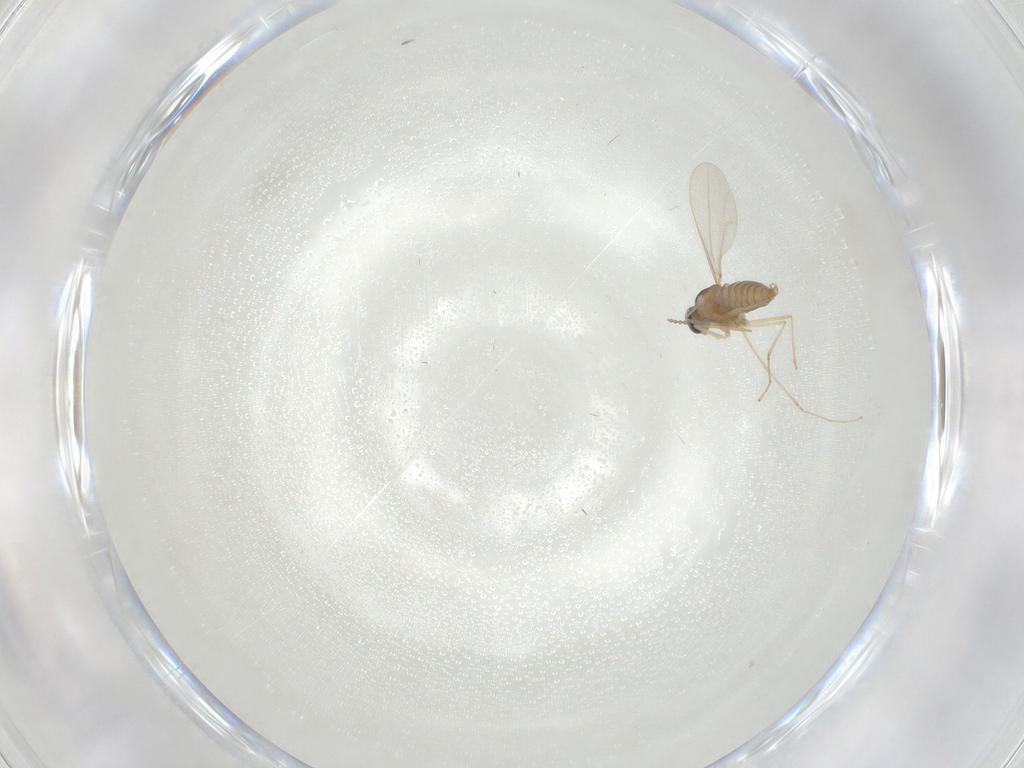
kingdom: Animalia
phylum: Arthropoda
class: Insecta
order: Diptera
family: Cecidomyiidae
